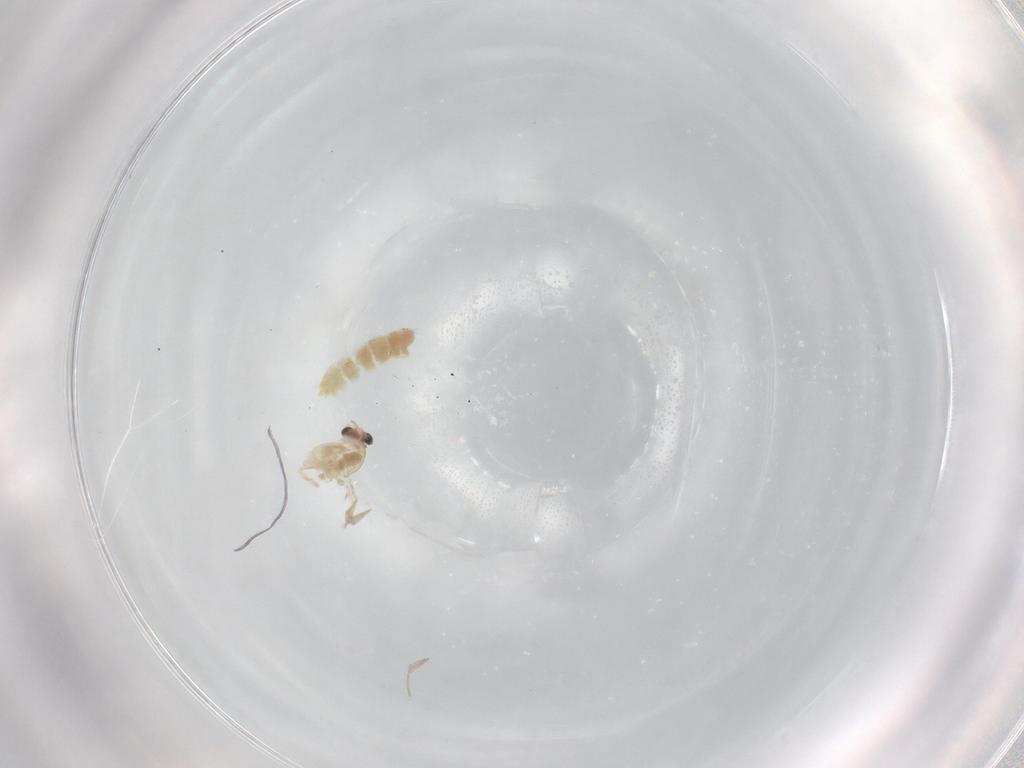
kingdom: Animalia
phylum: Arthropoda
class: Insecta
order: Diptera
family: Chironomidae
